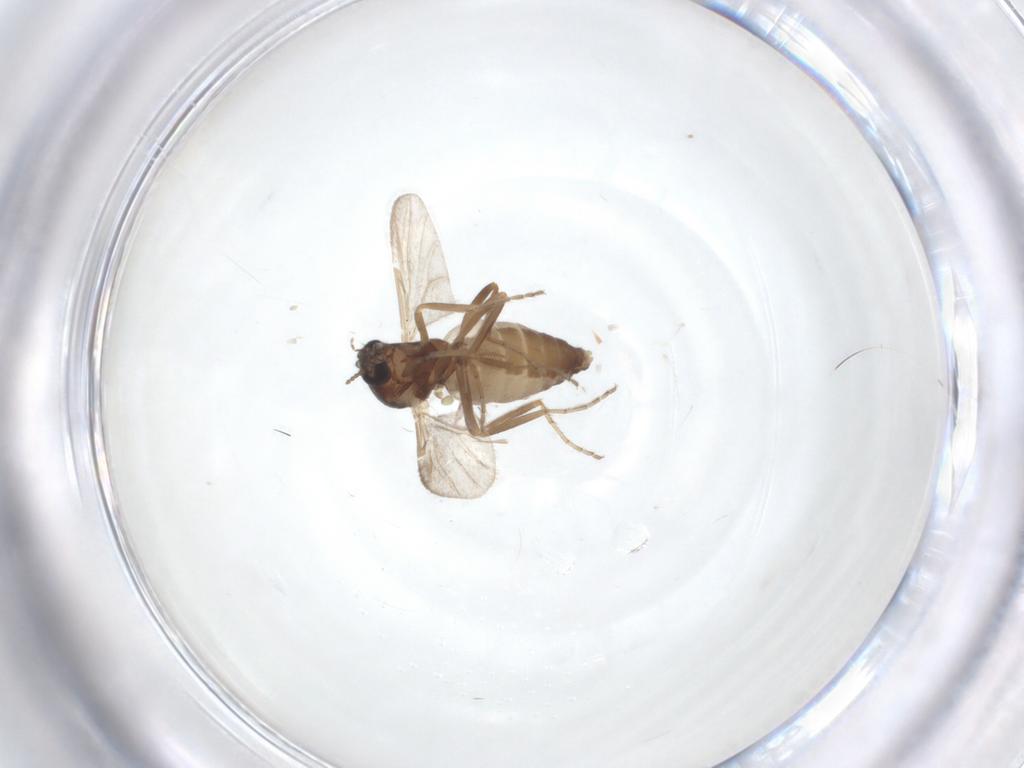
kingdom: Animalia
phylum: Arthropoda
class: Insecta
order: Diptera
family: Ceratopogonidae
